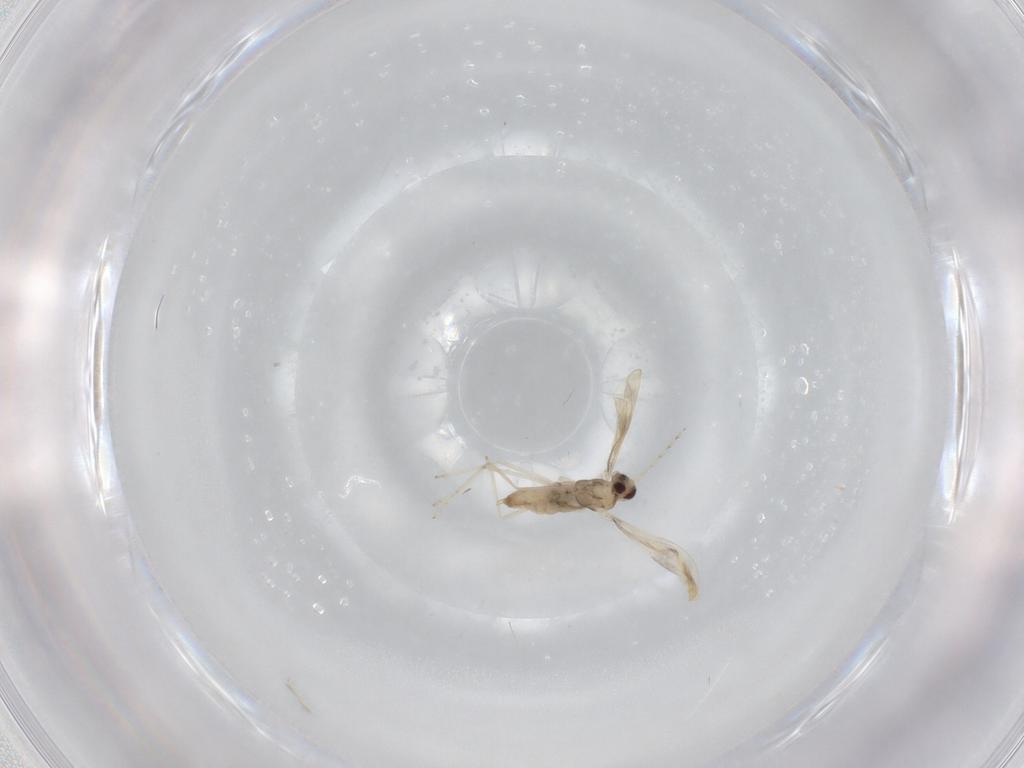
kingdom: Animalia
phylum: Arthropoda
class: Insecta
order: Diptera
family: Cecidomyiidae
